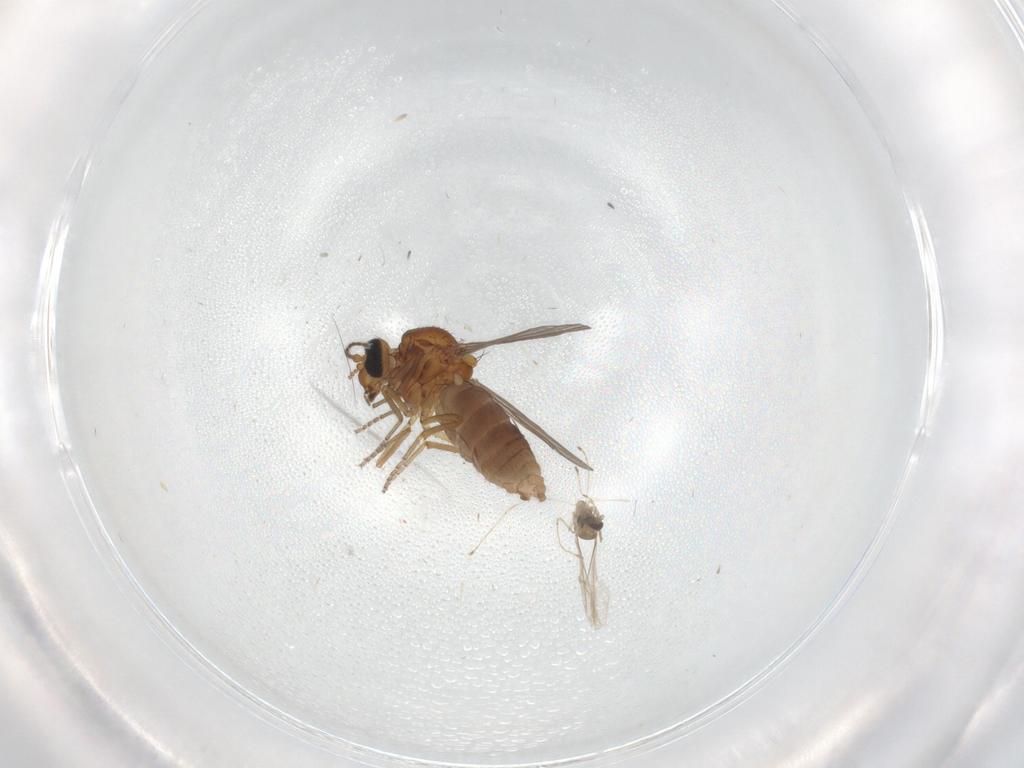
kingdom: Animalia
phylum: Arthropoda
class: Insecta
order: Diptera
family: Ceratopogonidae
